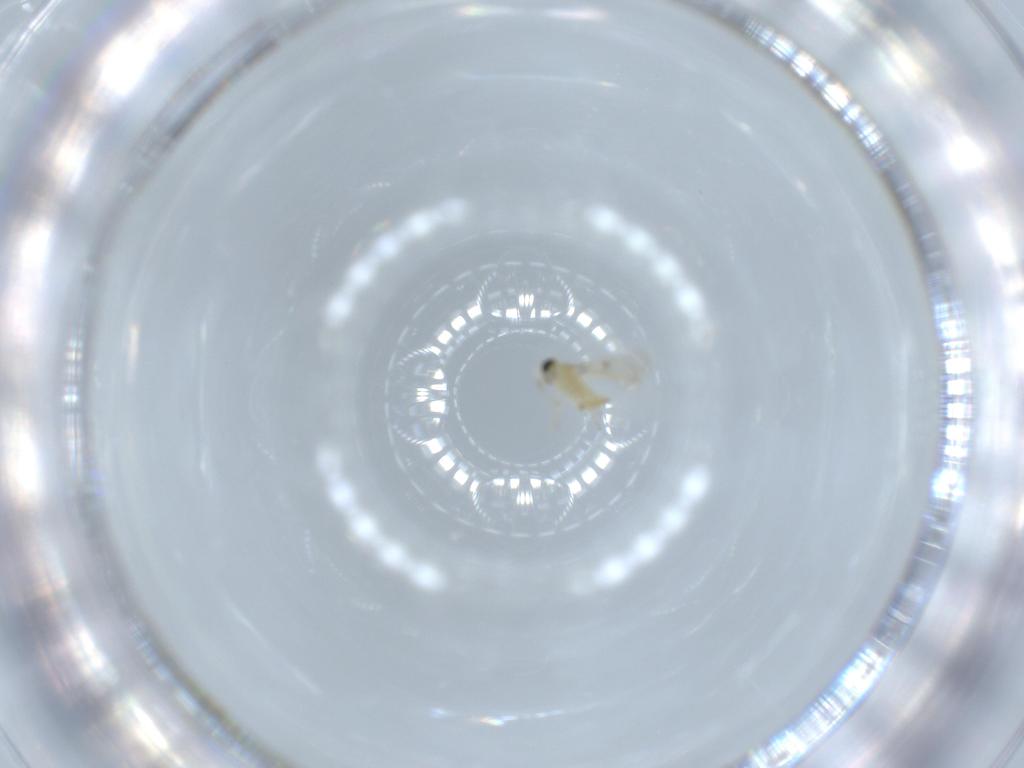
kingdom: Animalia
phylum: Arthropoda
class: Insecta
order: Hymenoptera
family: Trichogrammatidae
